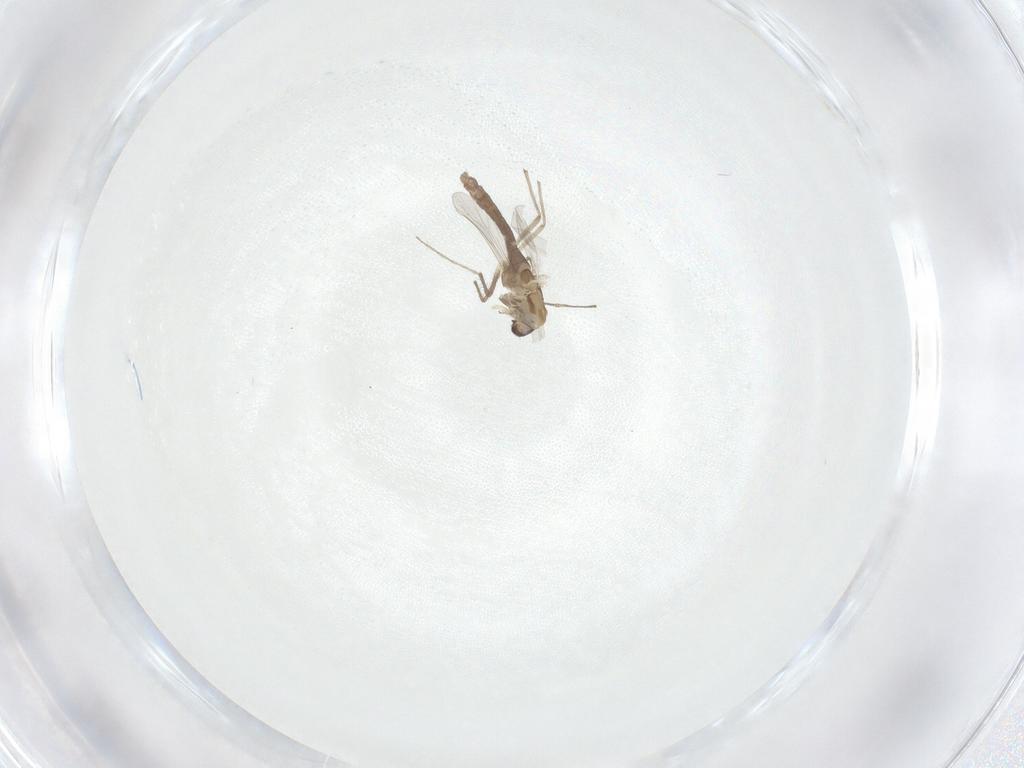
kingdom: Animalia
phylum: Arthropoda
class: Insecta
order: Diptera
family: Chironomidae
